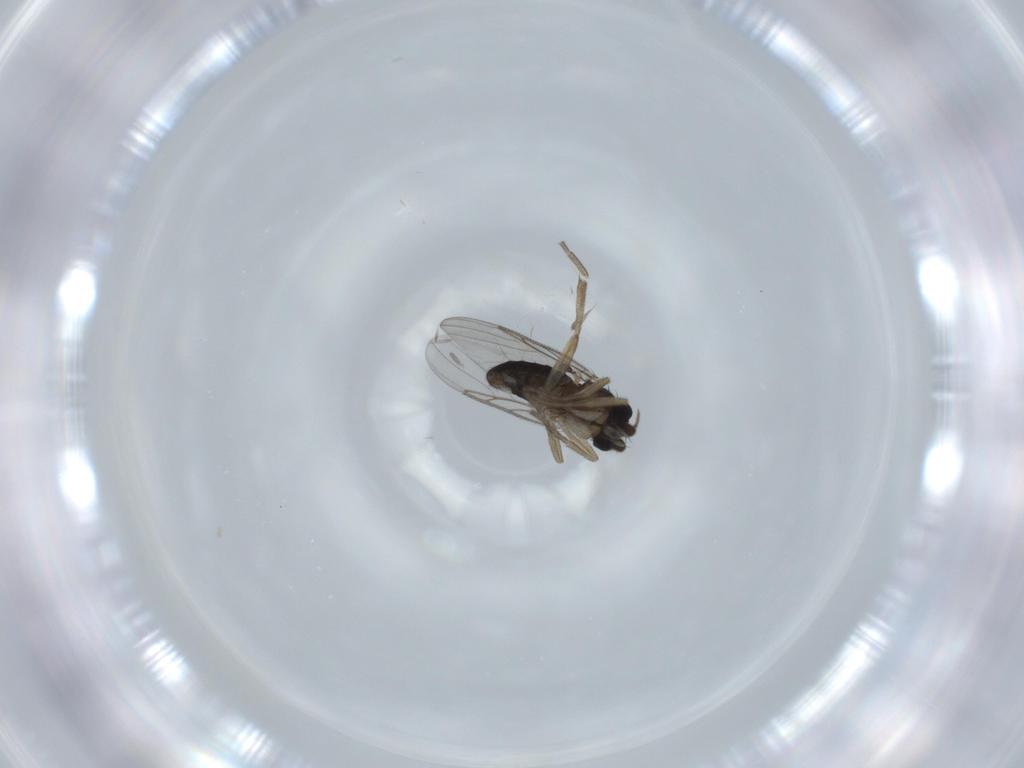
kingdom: Animalia
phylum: Arthropoda
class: Insecta
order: Diptera
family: Phoridae
